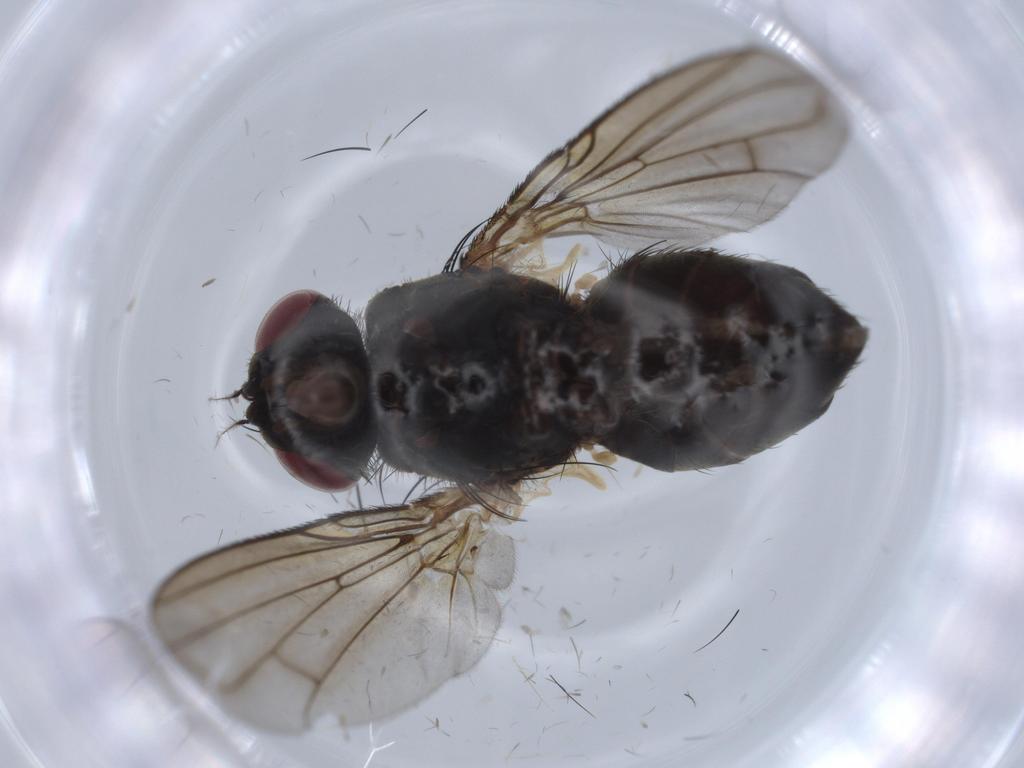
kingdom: Animalia
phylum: Arthropoda
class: Insecta
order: Diptera
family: Calliphoridae
